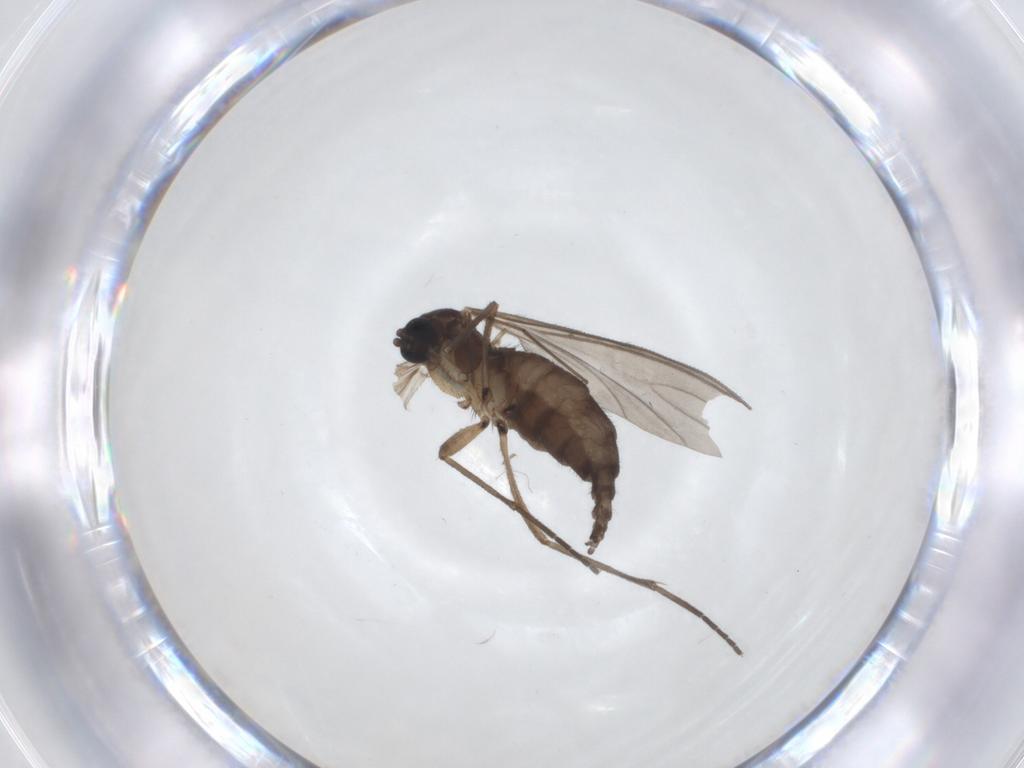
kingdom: Animalia
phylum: Arthropoda
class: Insecta
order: Diptera
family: Sciaridae
